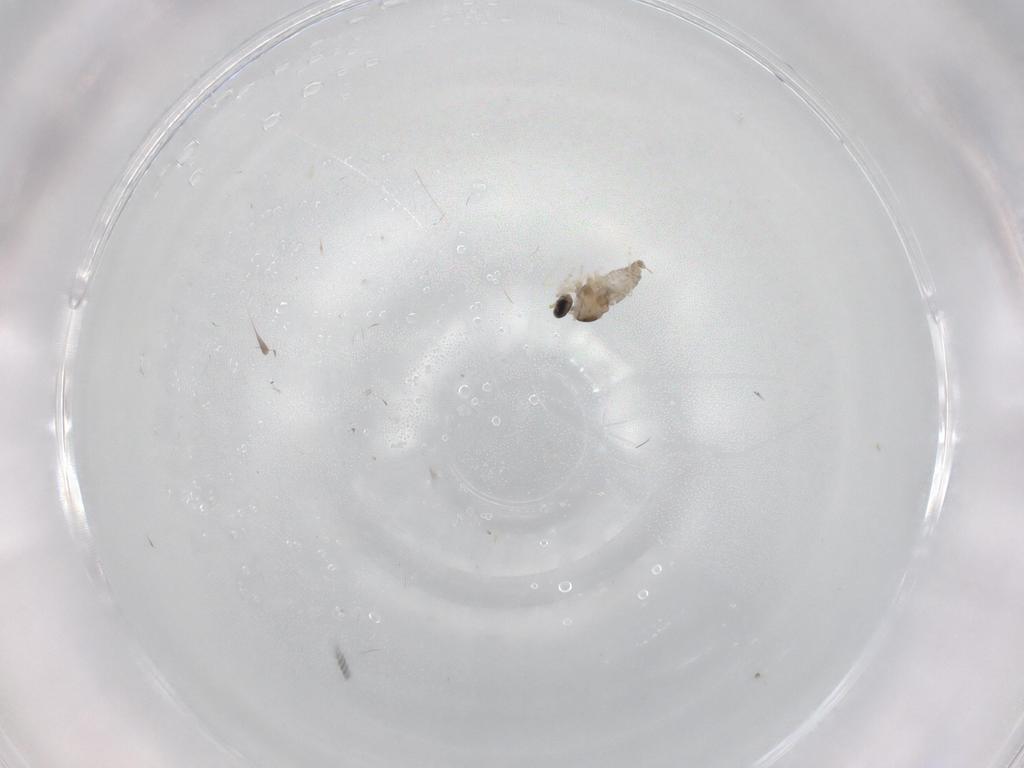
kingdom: Animalia
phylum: Arthropoda
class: Insecta
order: Diptera
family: Cecidomyiidae
